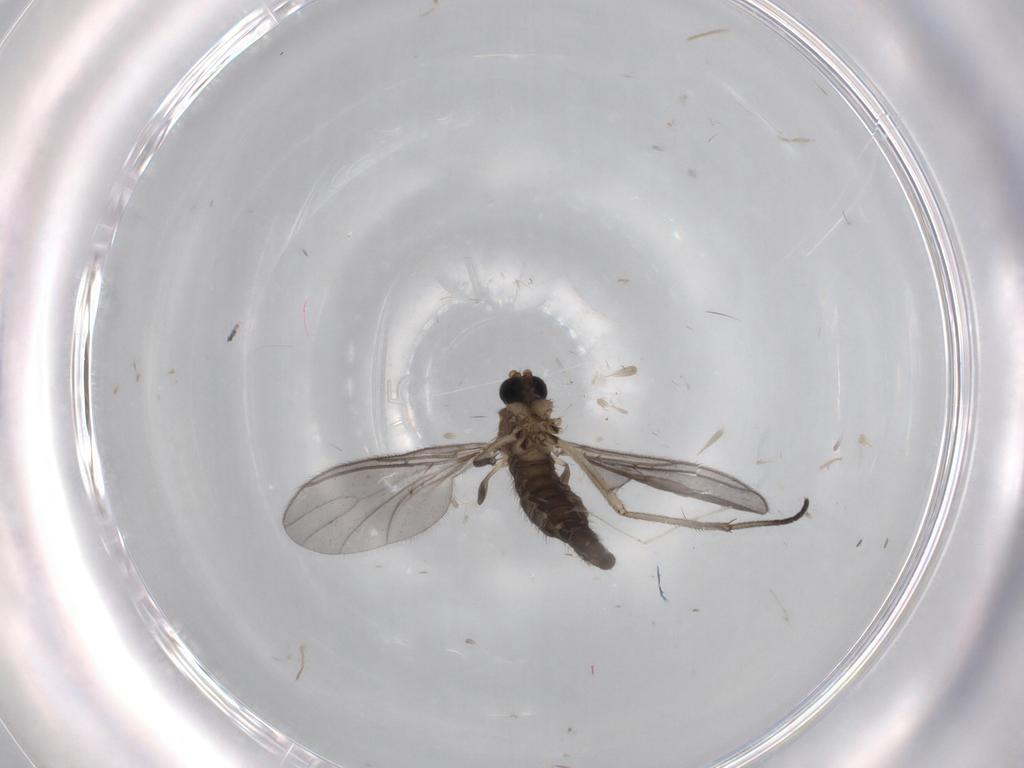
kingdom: Animalia
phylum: Arthropoda
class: Insecta
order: Diptera
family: Sciaridae
